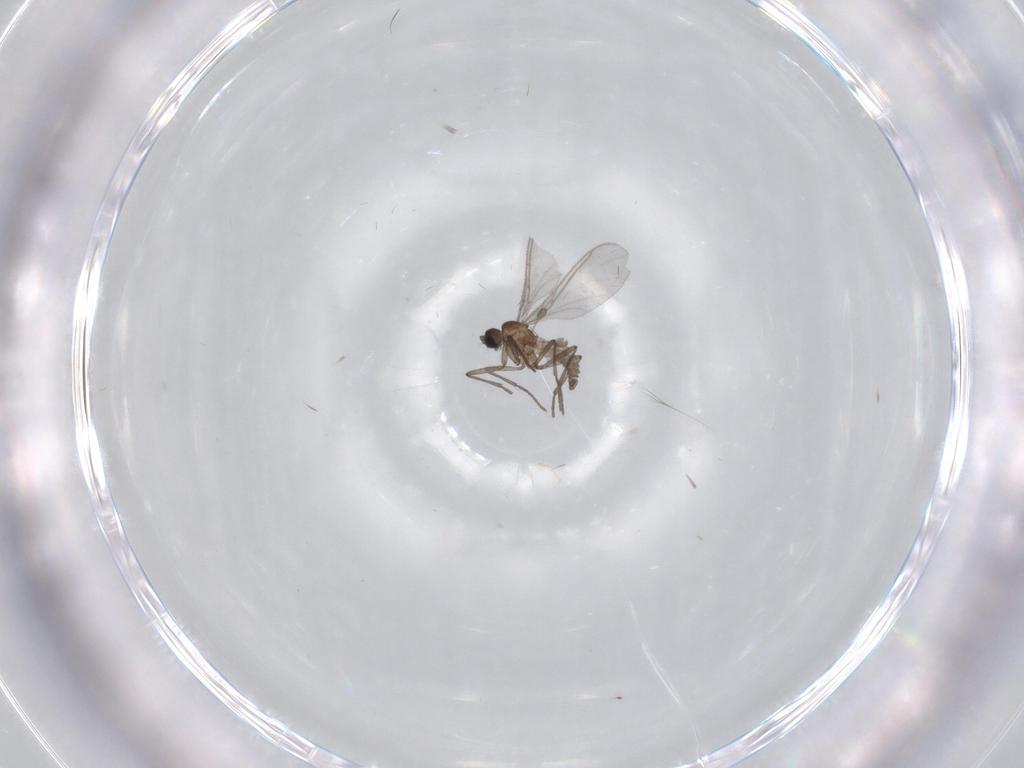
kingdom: Animalia
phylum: Arthropoda
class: Insecta
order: Diptera
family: Sciaridae
